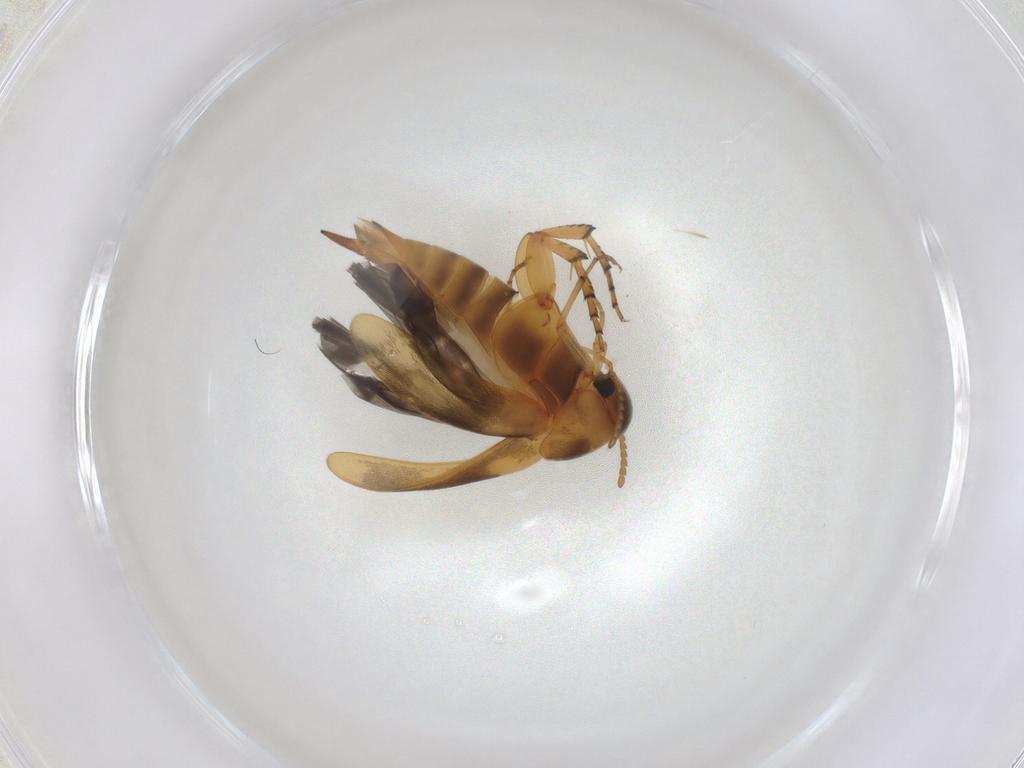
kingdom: Animalia
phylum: Arthropoda
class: Insecta
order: Coleoptera
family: Mordellidae
